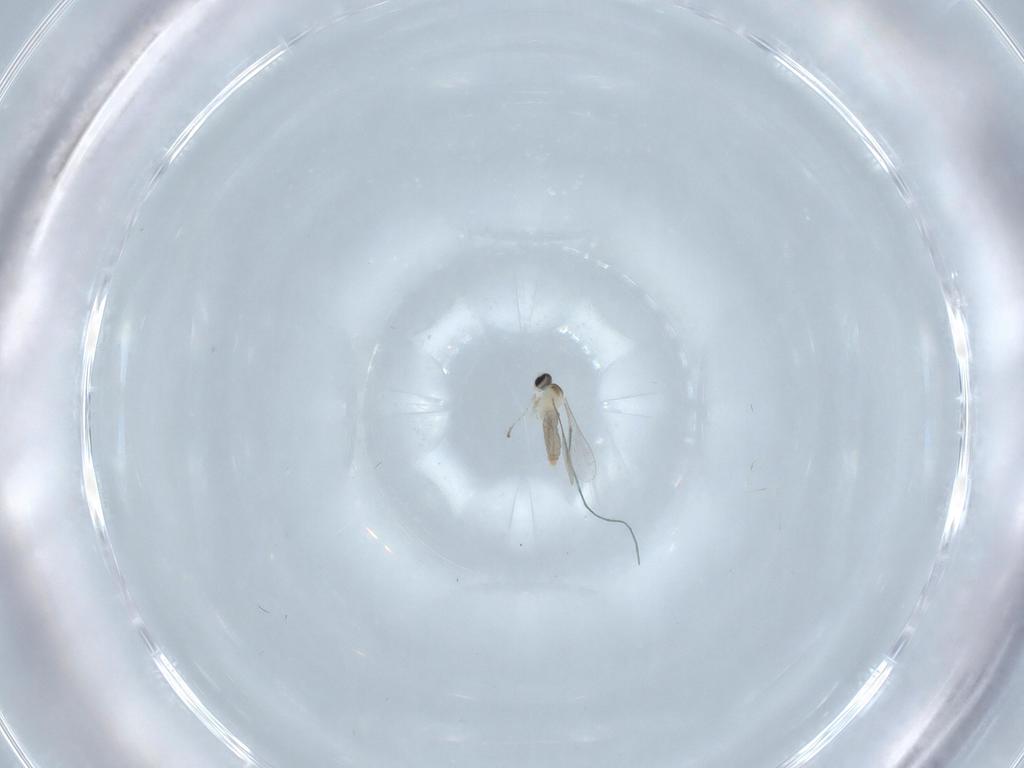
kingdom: Animalia
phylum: Arthropoda
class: Insecta
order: Diptera
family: Cecidomyiidae
